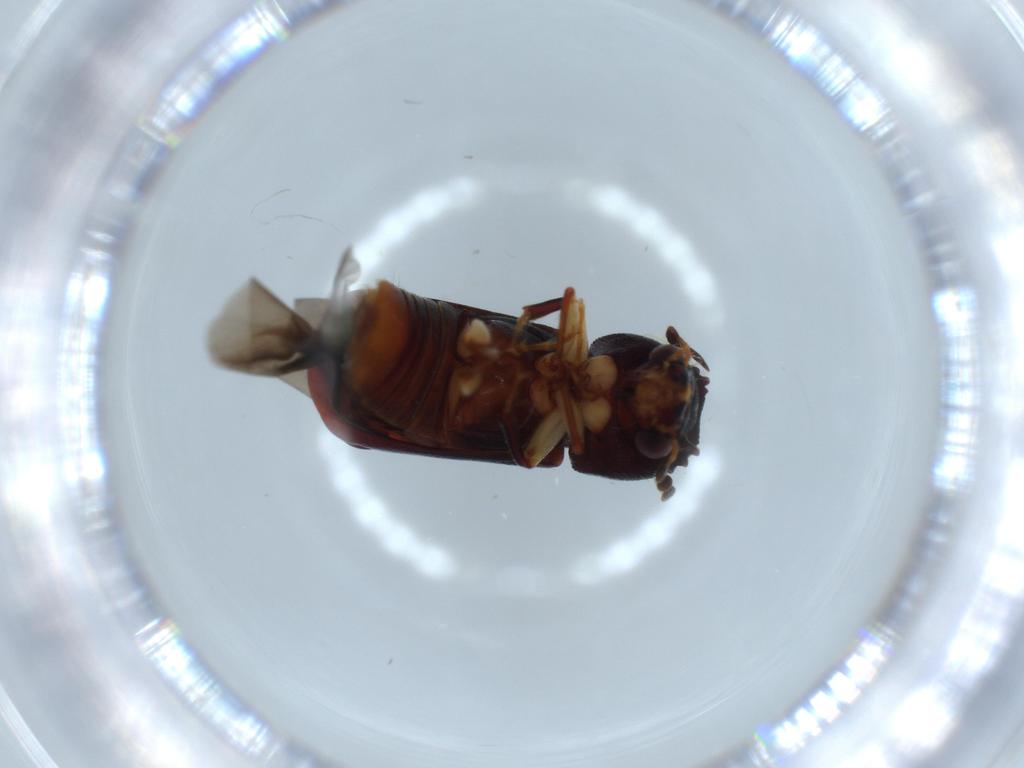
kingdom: Animalia
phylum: Arthropoda
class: Insecta
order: Coleoptera
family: Bostrichidae
